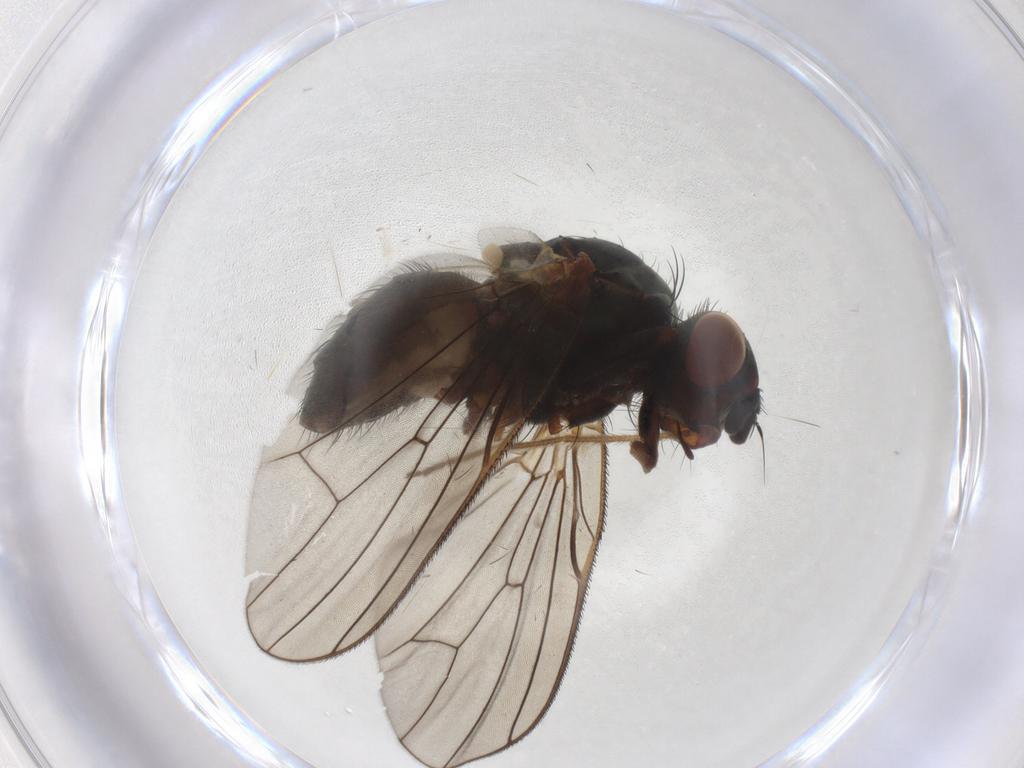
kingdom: Animalia
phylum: Arthropoda
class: Insecta
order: Diptera
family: Anthomyiidae
